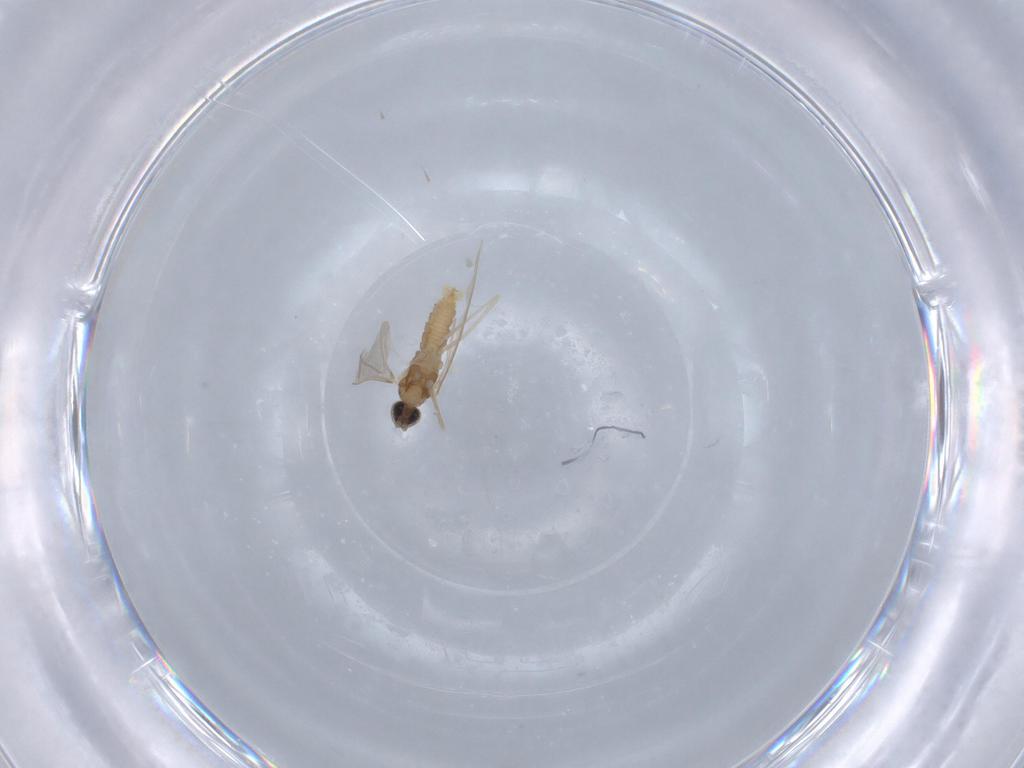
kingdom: Animalia
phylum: Arthropoda
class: Insecta
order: Diptera
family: Cecidomyiidae
